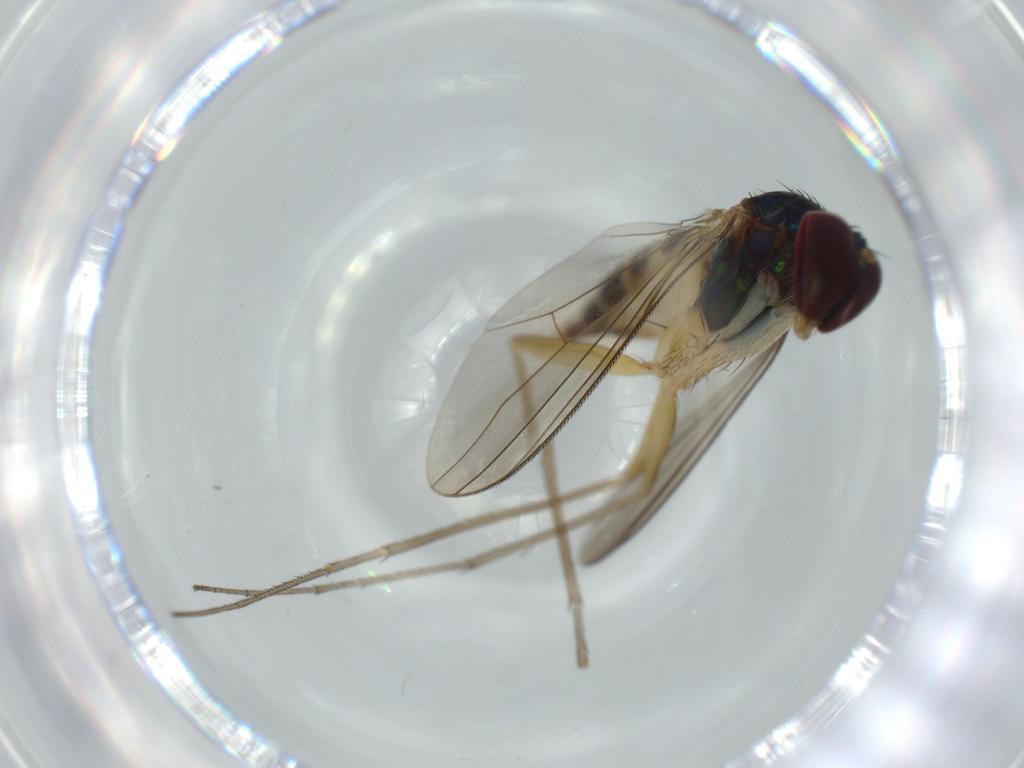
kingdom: Animalia
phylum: Arthropoda
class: Insecta
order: Diptera
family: Dolichopodidae
